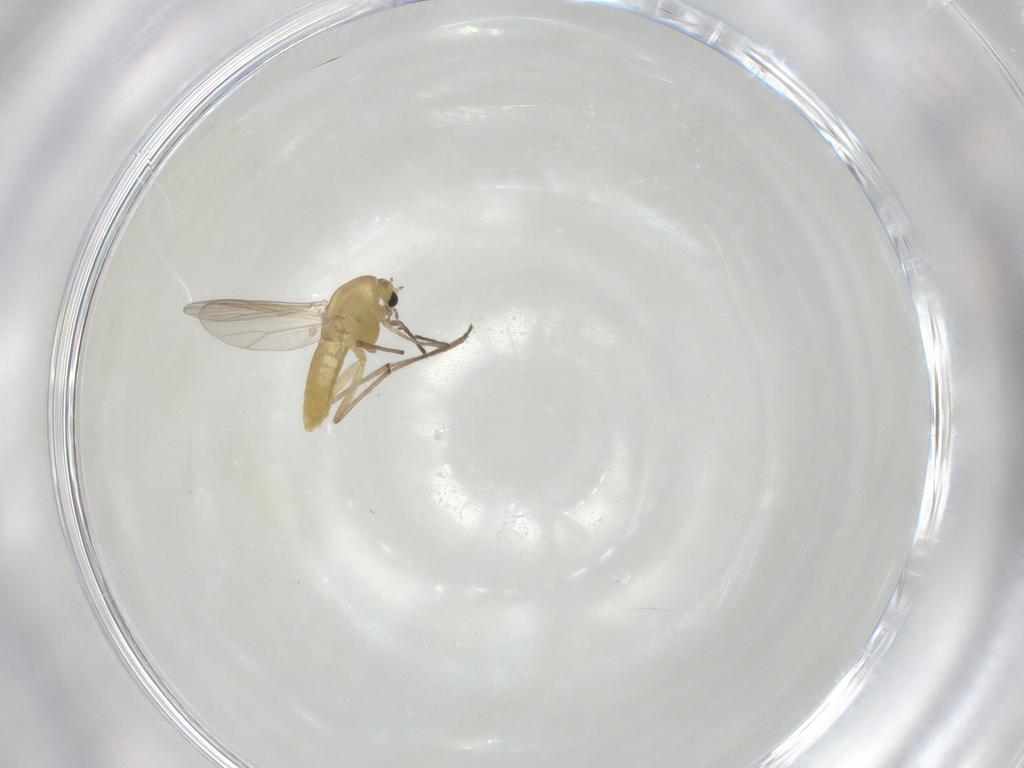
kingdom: Animalia
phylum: Arthropoda
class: Insecta
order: Diptera
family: Chironomidae
